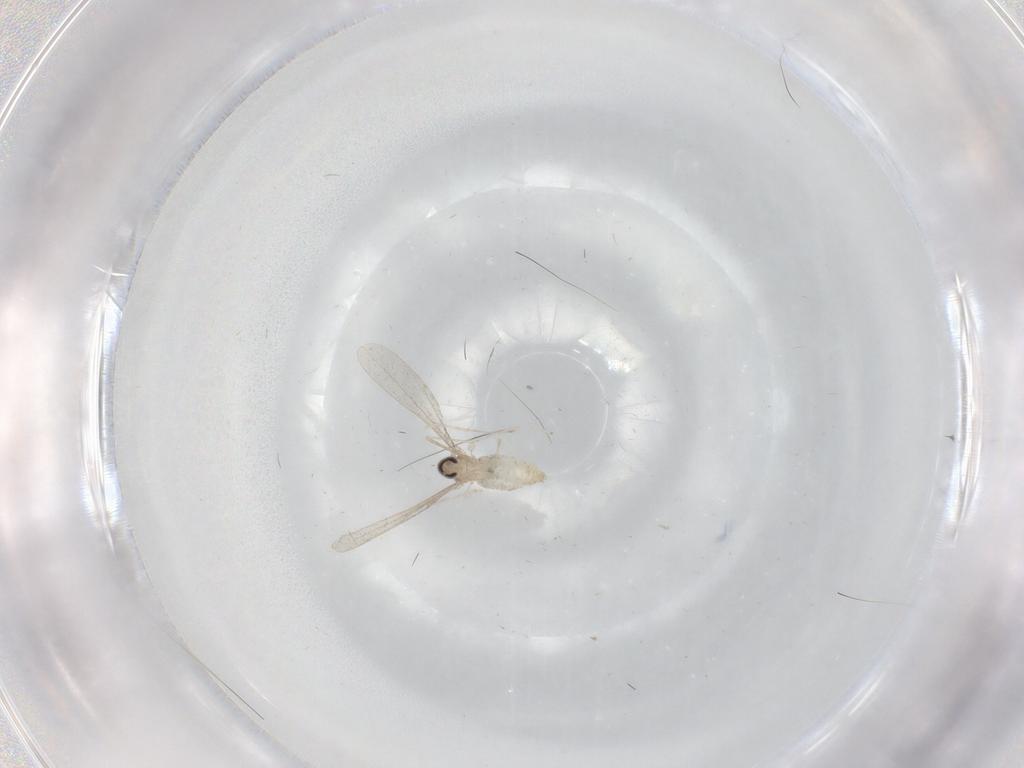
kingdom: Animalia
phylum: Arthropoda
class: Insecta
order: Diptera
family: Cecidomyiidae
